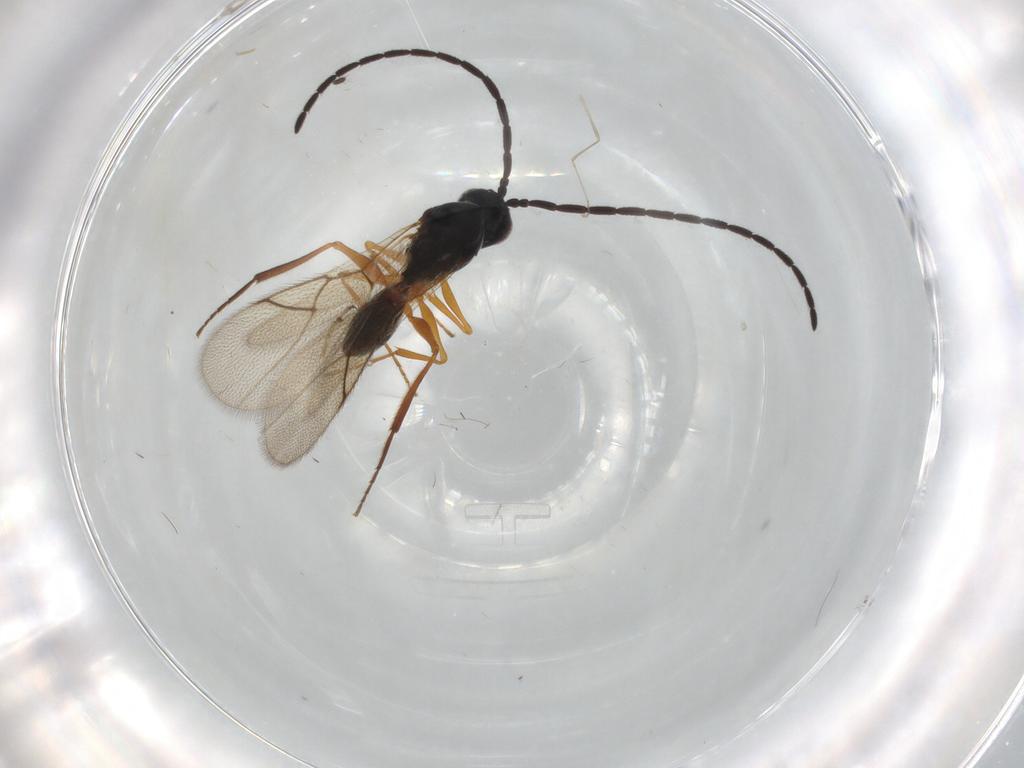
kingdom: Animalia
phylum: Arthropoda
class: Insecta
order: Hymenoptera
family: Figitidae
